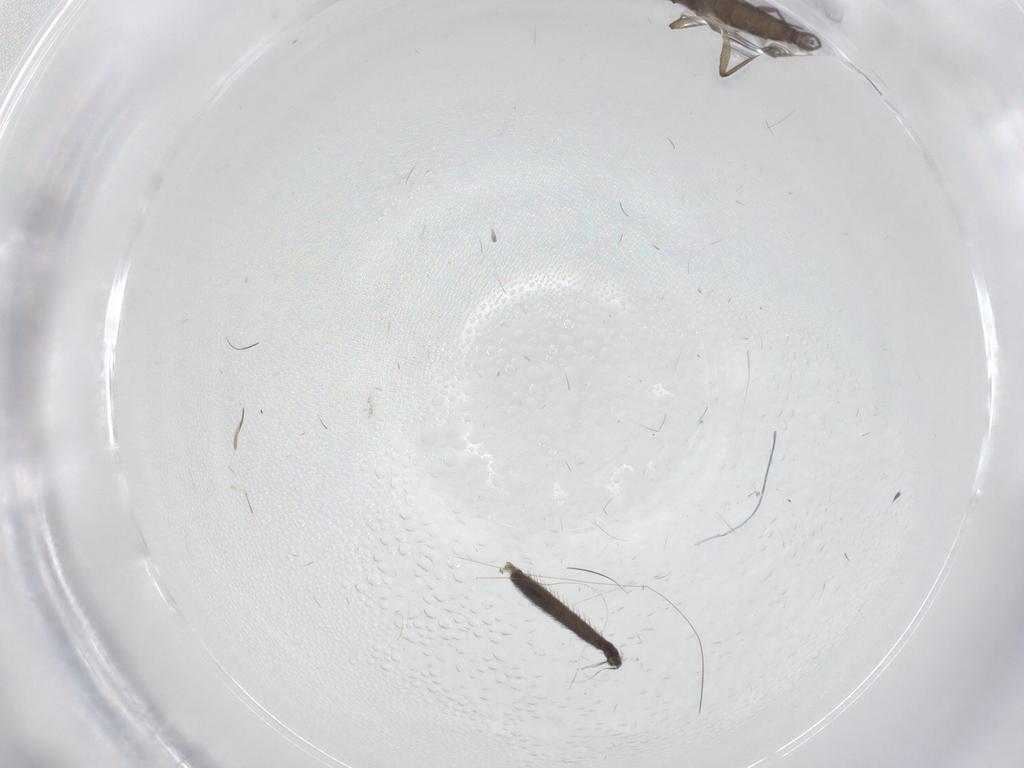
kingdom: Animalia
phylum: Arthropoda
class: Insecta
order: Diptera
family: Sciaridae
